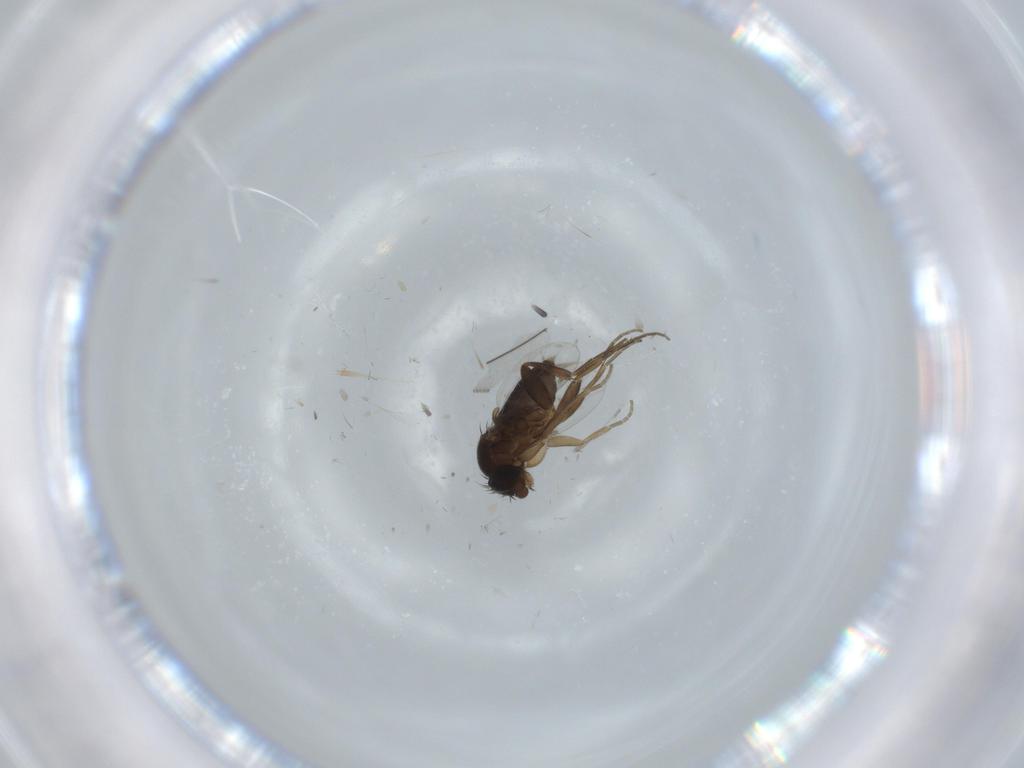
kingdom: Animalia
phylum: Arthropoda
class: Insecta
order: Diptera
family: Phoridae
